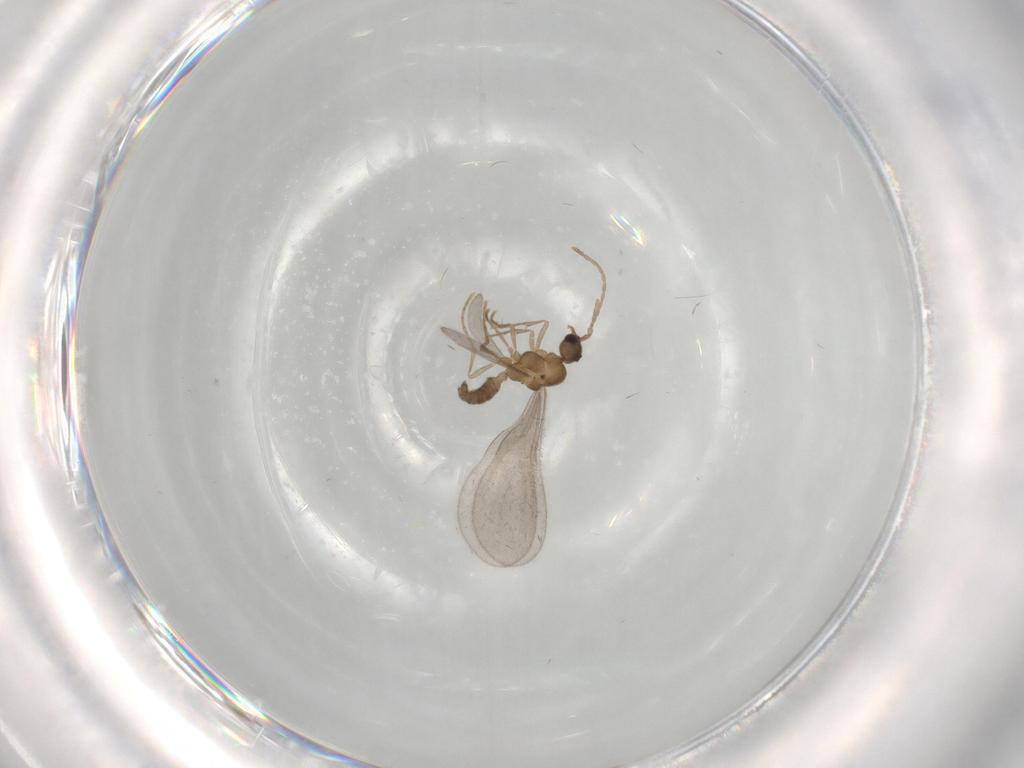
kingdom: Animalia
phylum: Arthropoda
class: Insecta
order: Hymenoptera
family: Formicidae
